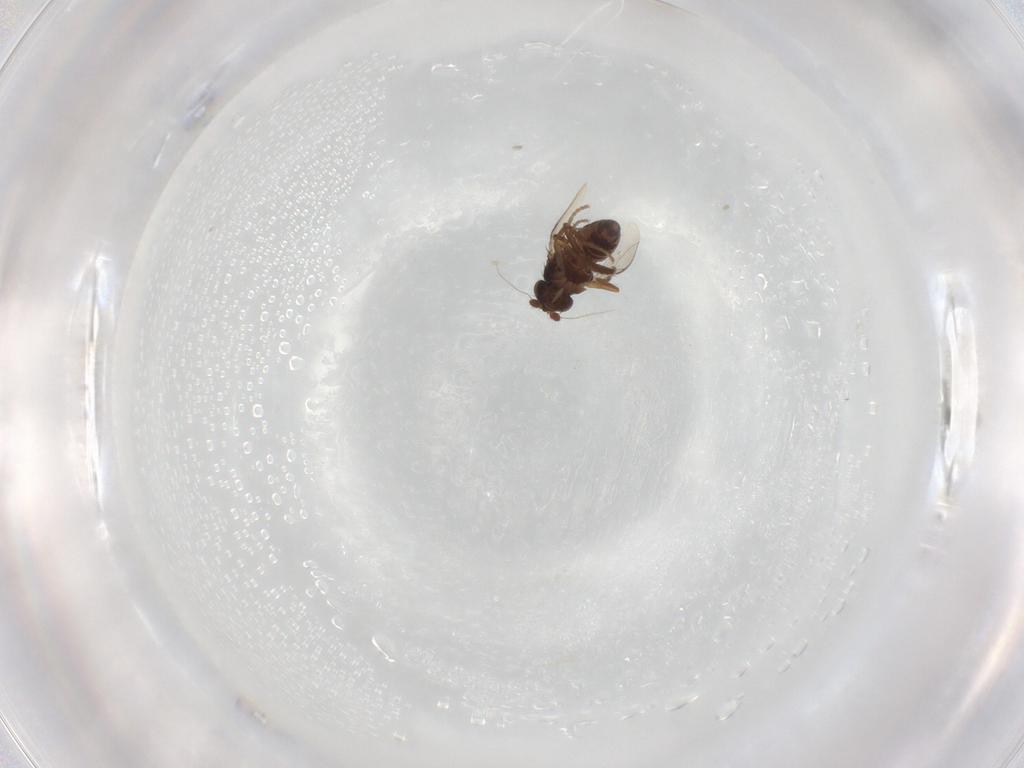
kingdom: Animalia
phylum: Arthropoda
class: Insecta
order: Diptera
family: Sphaeroceridae
